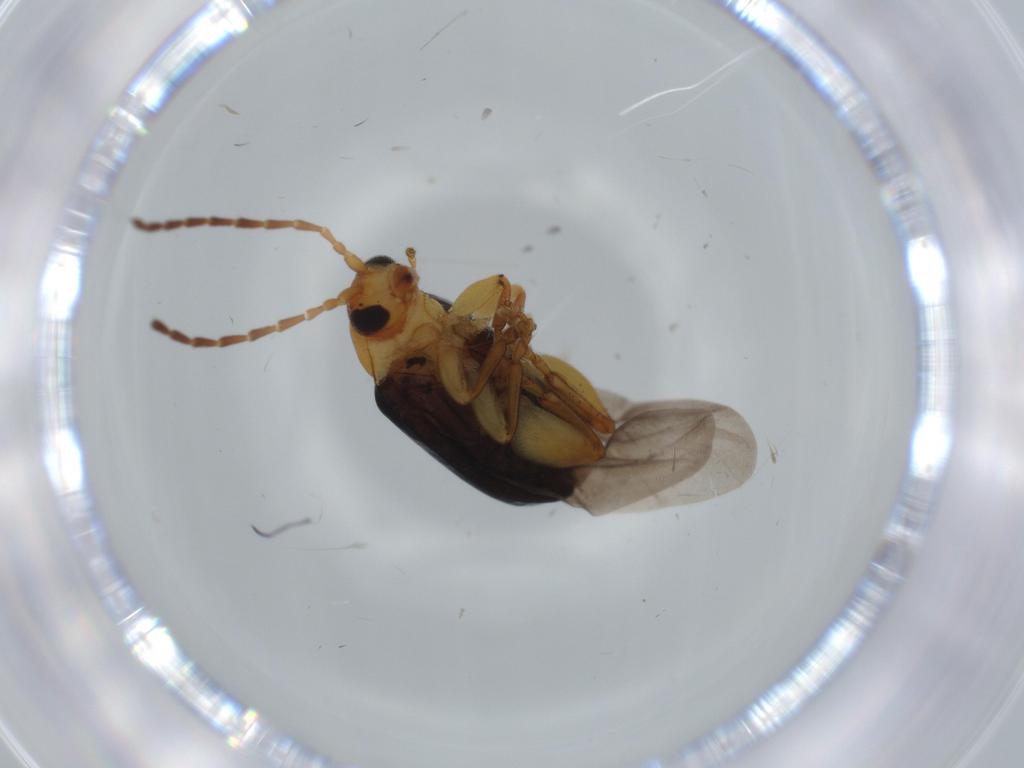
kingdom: Animalia
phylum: Arthropoda
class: Insecta
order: Coleoptera
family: Chrysomelidae
